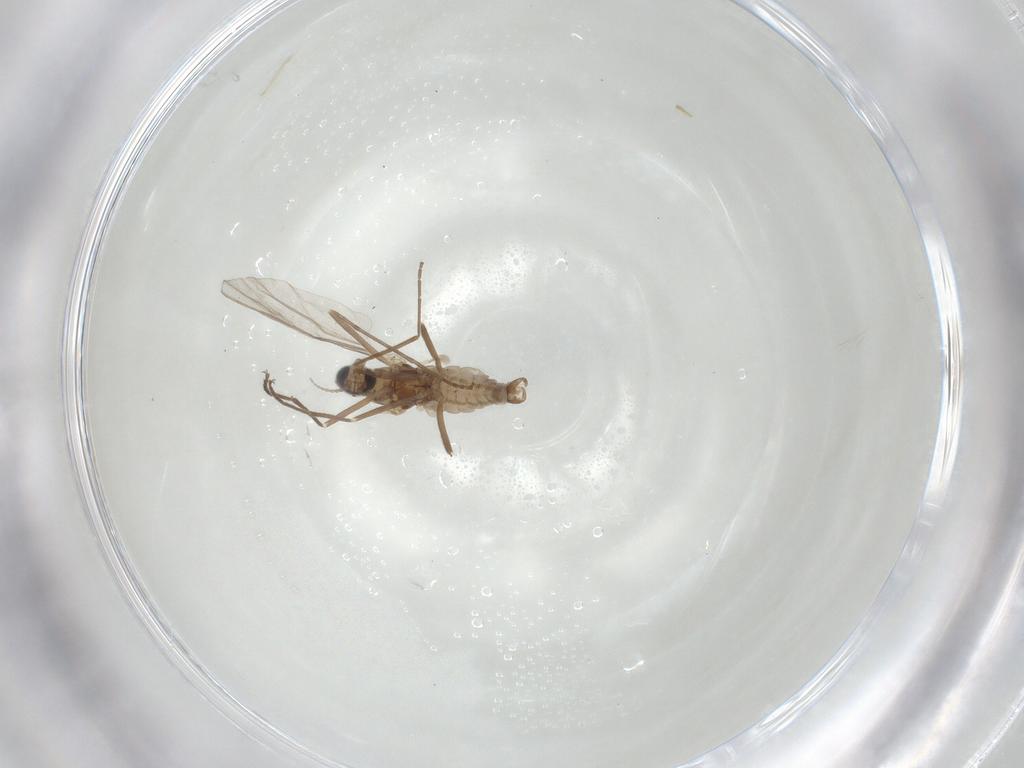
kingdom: Animalia
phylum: Arthropoda
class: Insecta
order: Diptera
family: Cecidomyiidae
